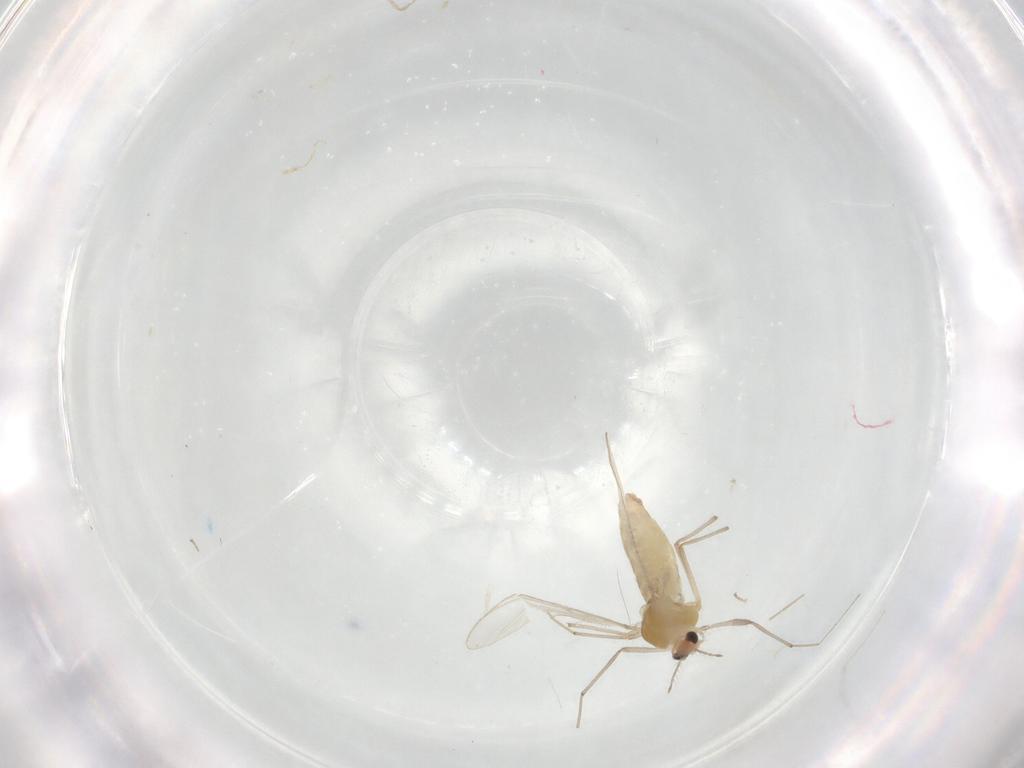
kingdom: Animalia
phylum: Arthropoda
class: Insecta
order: Diptera
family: Chironomidae
